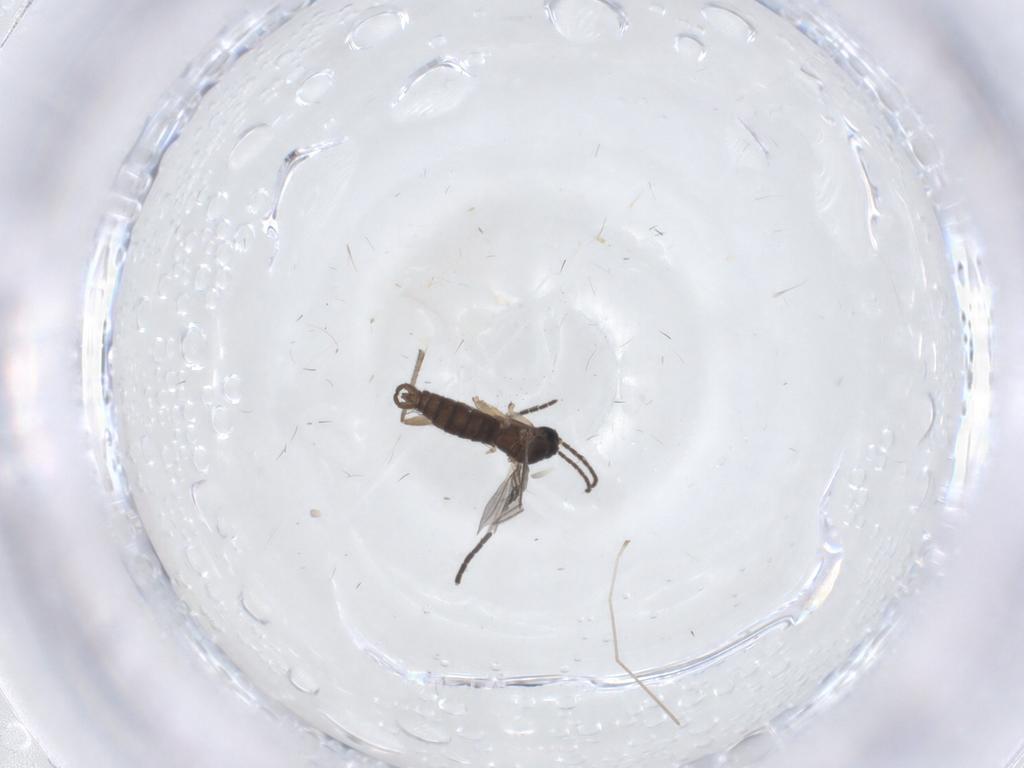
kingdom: Animalia
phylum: Arthropoda
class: Insecta
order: Diptera
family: Sciaridae
